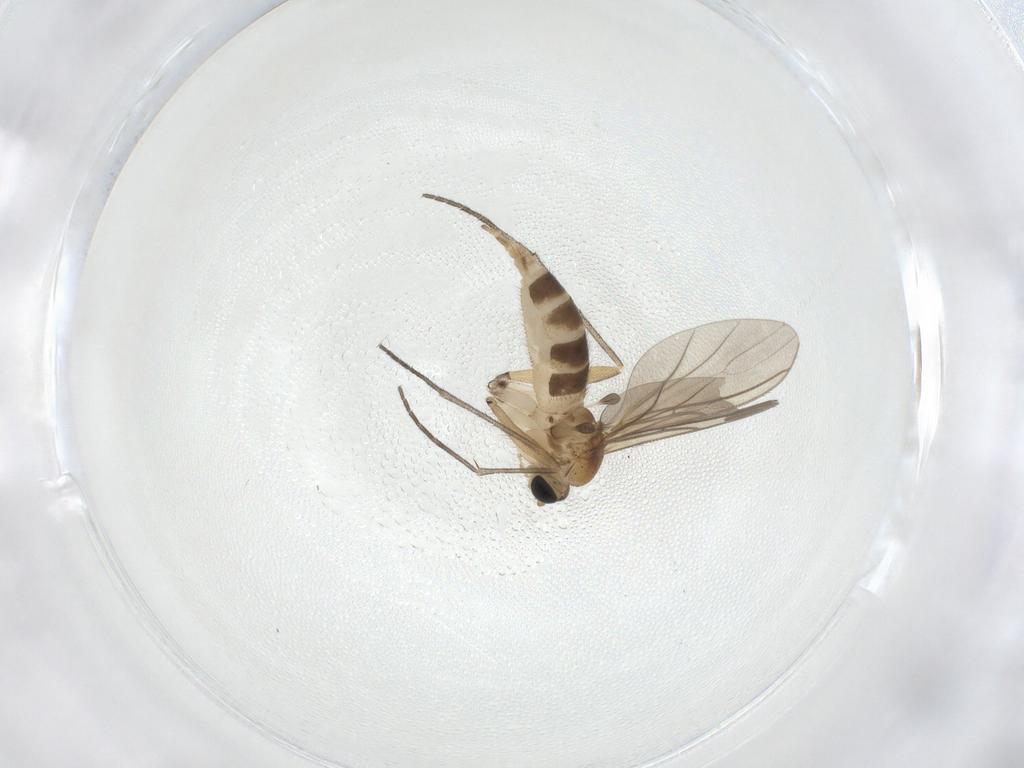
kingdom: Animalia
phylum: Arthropoda
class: Insecta
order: Diptera
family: Sciaridae
